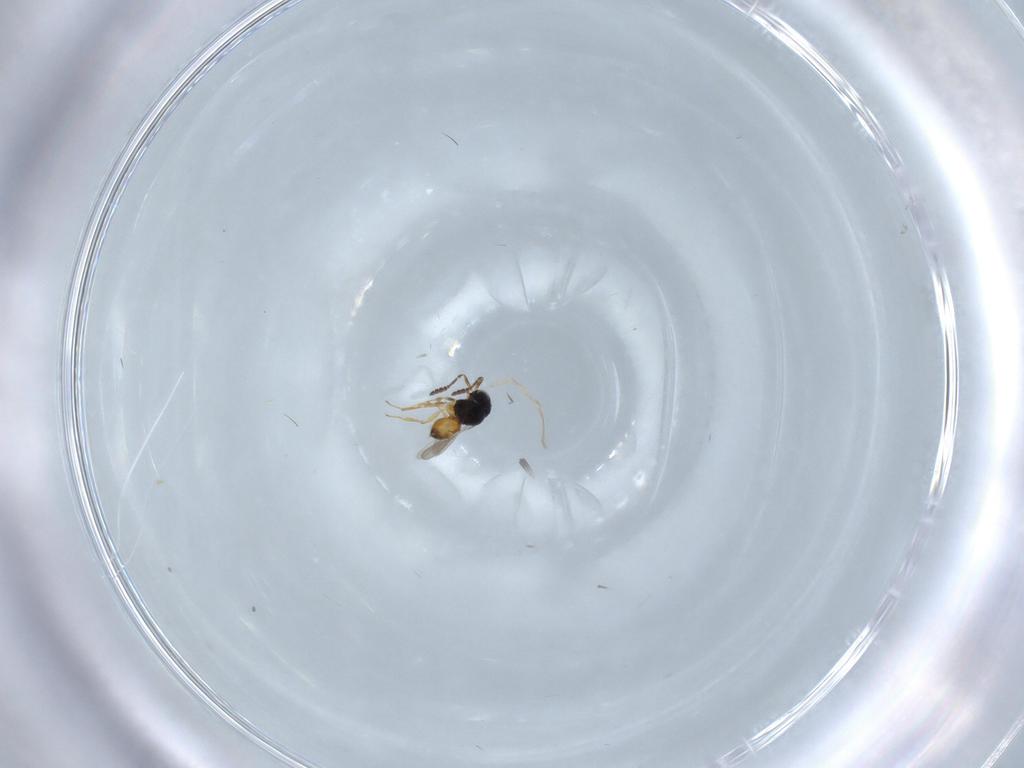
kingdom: Animalia
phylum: Arthropoda
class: Insecta
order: Hymenoptera
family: Scelionidae
